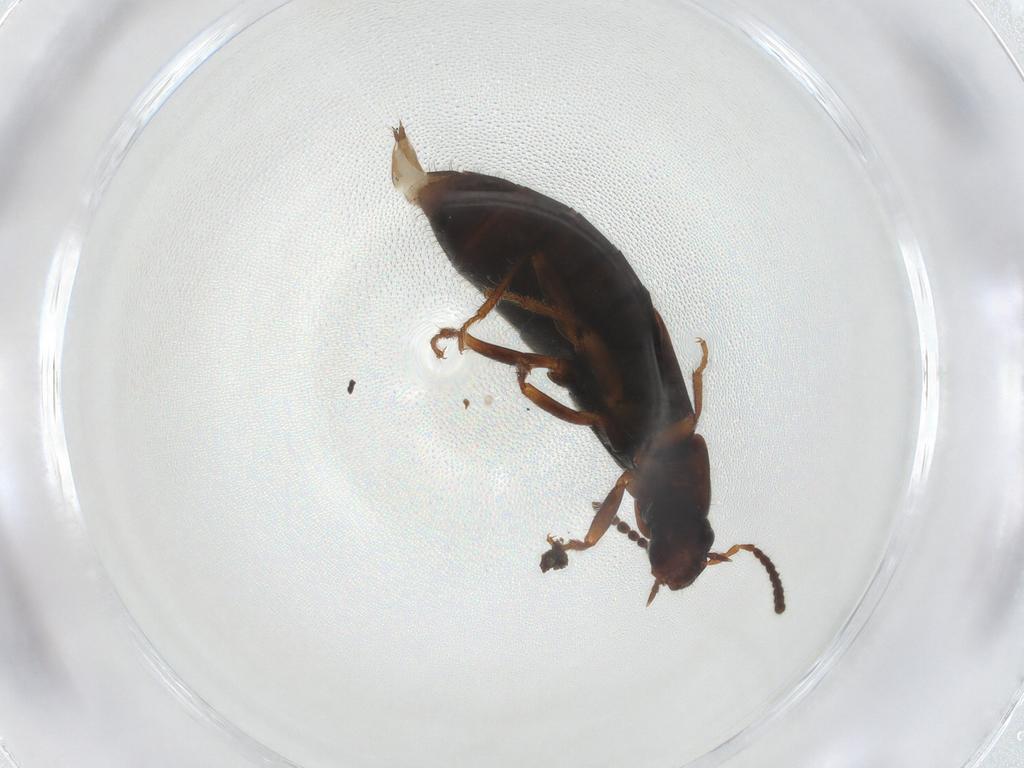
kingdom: Animalia
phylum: Arthropoda
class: Insecta
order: Coleoptera
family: Staphylinidae
